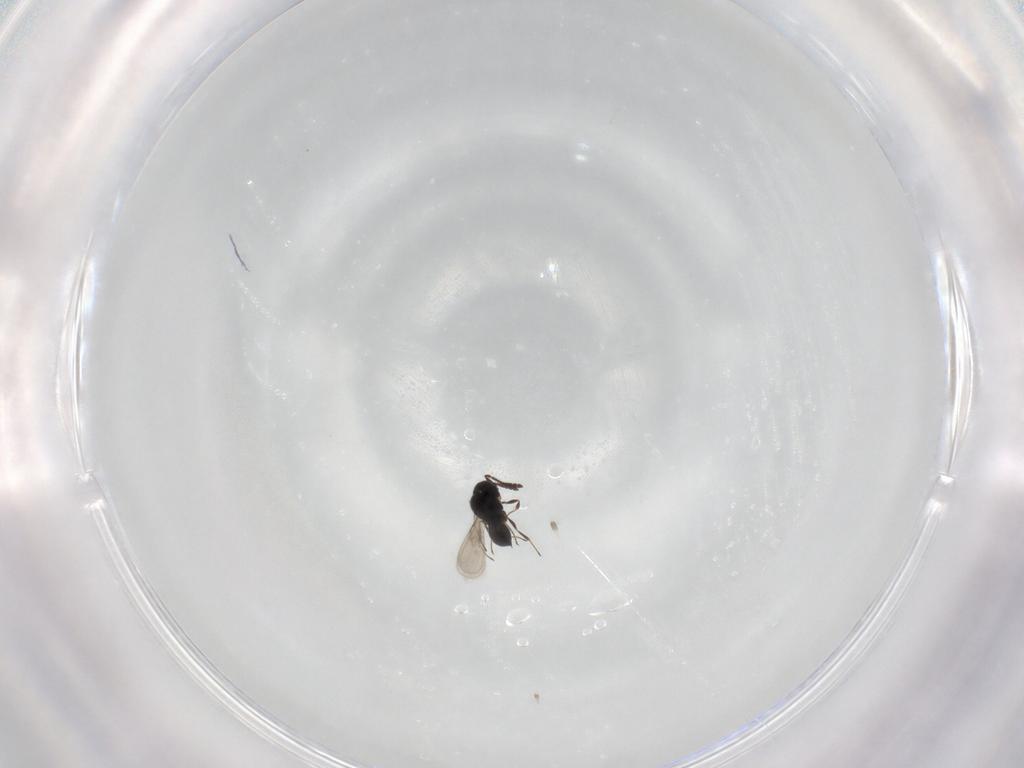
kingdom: Animalia
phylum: Arthropoda
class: Insecta
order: Hymenoptera
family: Scelionidae
